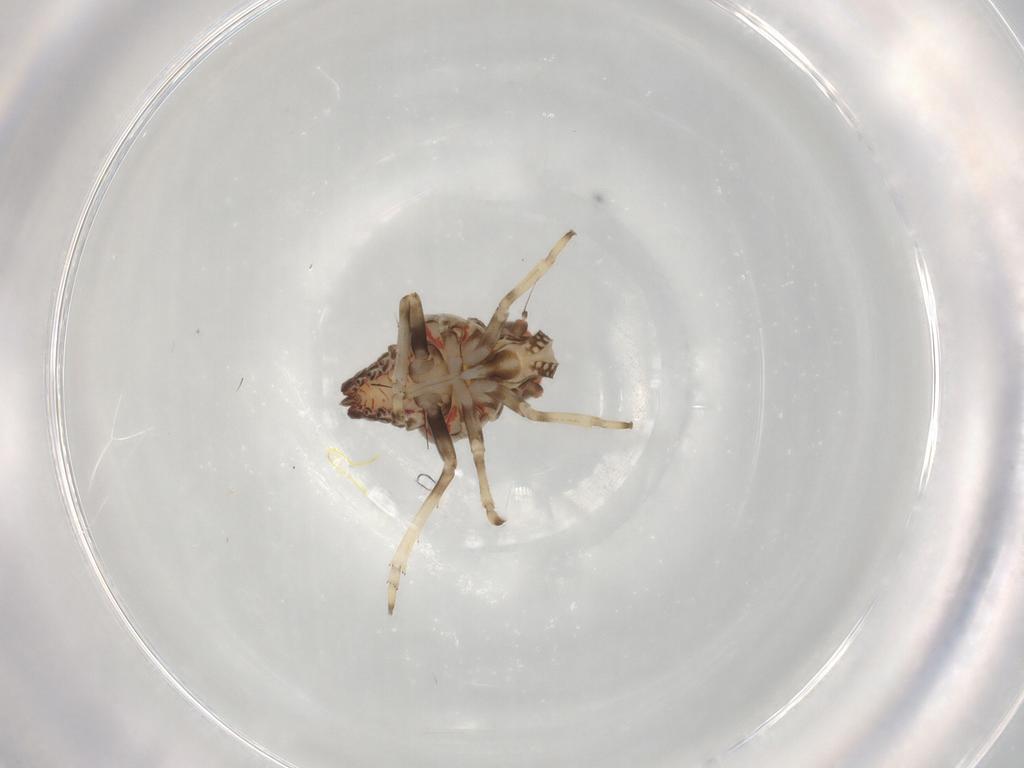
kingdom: Animalia
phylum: Arthropoda
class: Insecta
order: Hemiptera
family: Tropiduchidae
